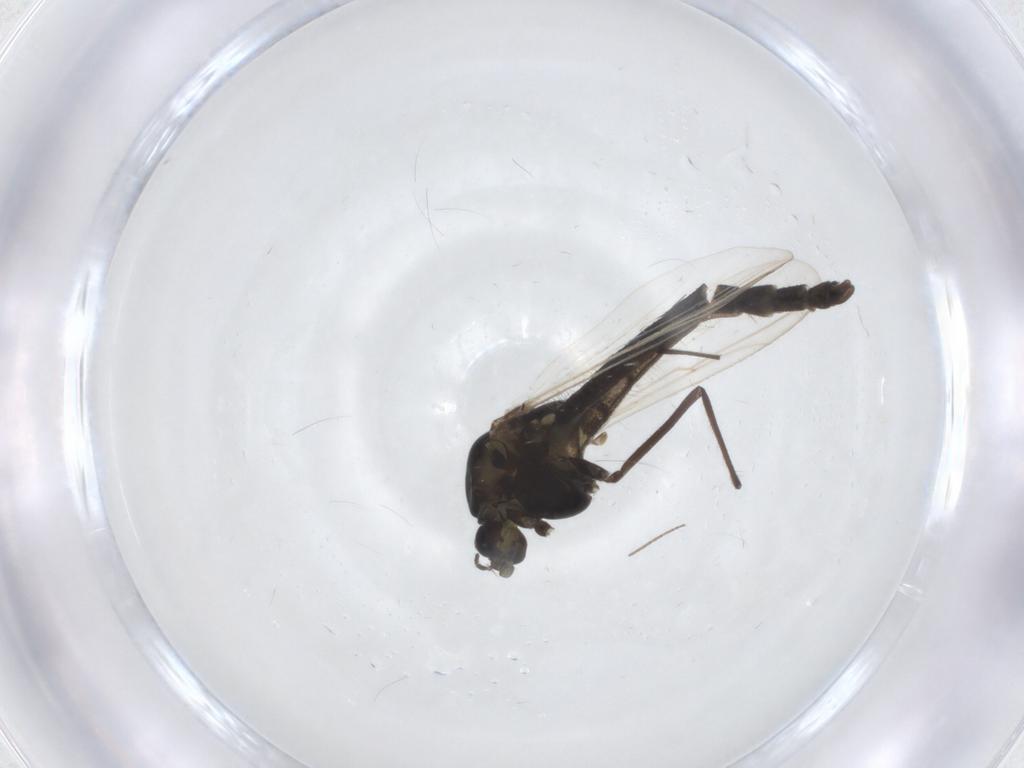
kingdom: Animalia
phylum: Arthropoda
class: Insecta
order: Diptera
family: Chironomidae
